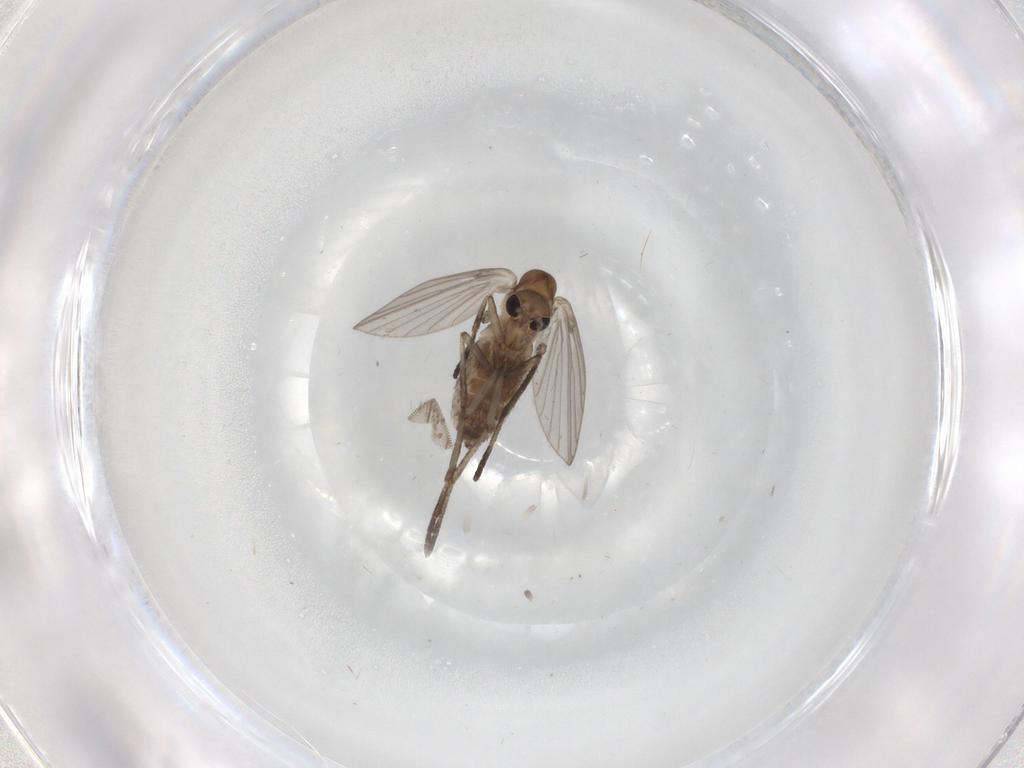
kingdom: Animalia
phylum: Arthropoda
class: Insecta
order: Diptera
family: Psychodidae
